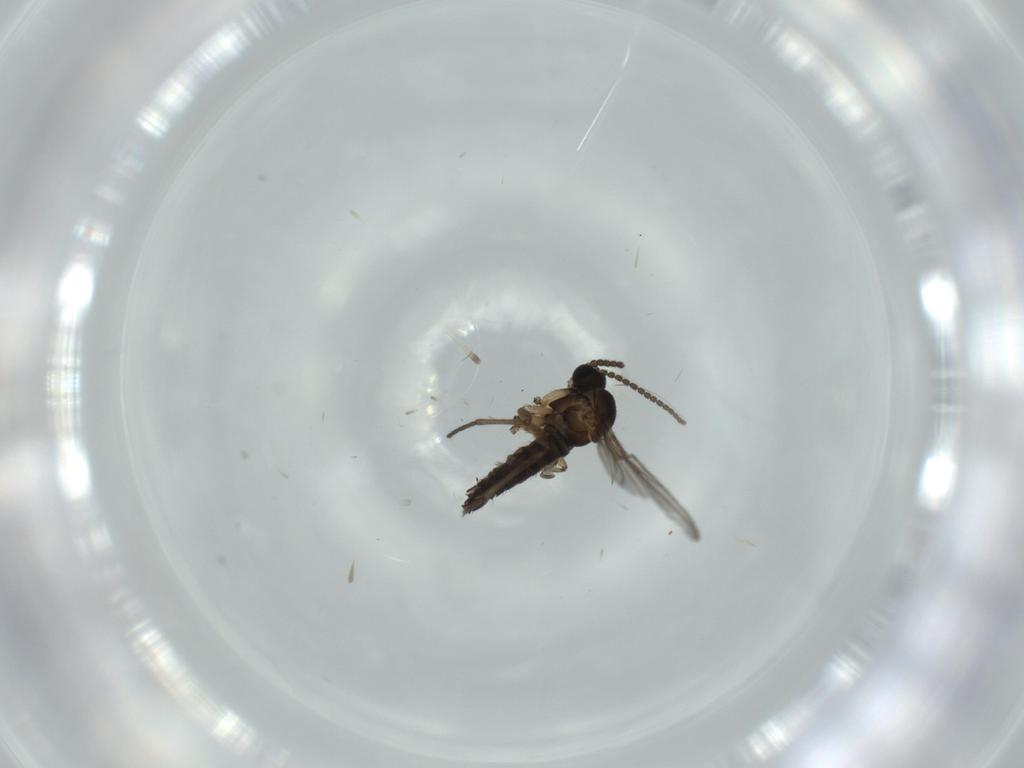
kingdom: Animalia
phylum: Arthropoda
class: Insecta
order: Diptera
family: Sciaridae
